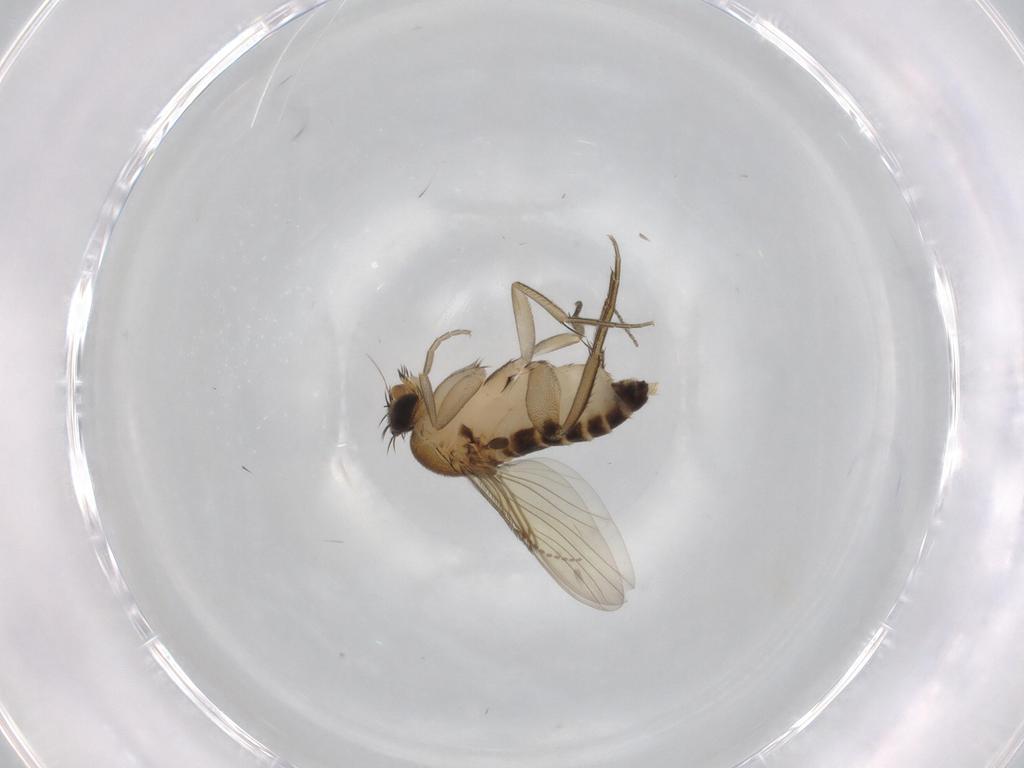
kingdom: Animalia
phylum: Arthropoda
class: Insecta
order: Diptera
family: Phoridae
